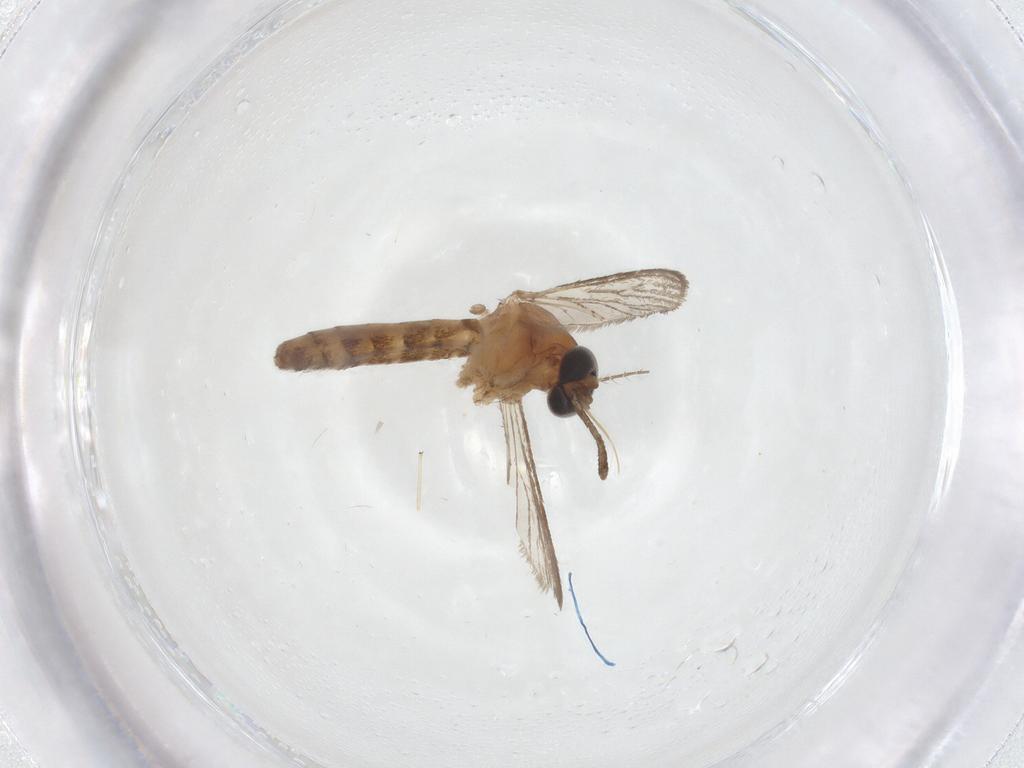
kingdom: Animalia
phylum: Arthropoda
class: Insecta
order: Diptera
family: Culicidae
